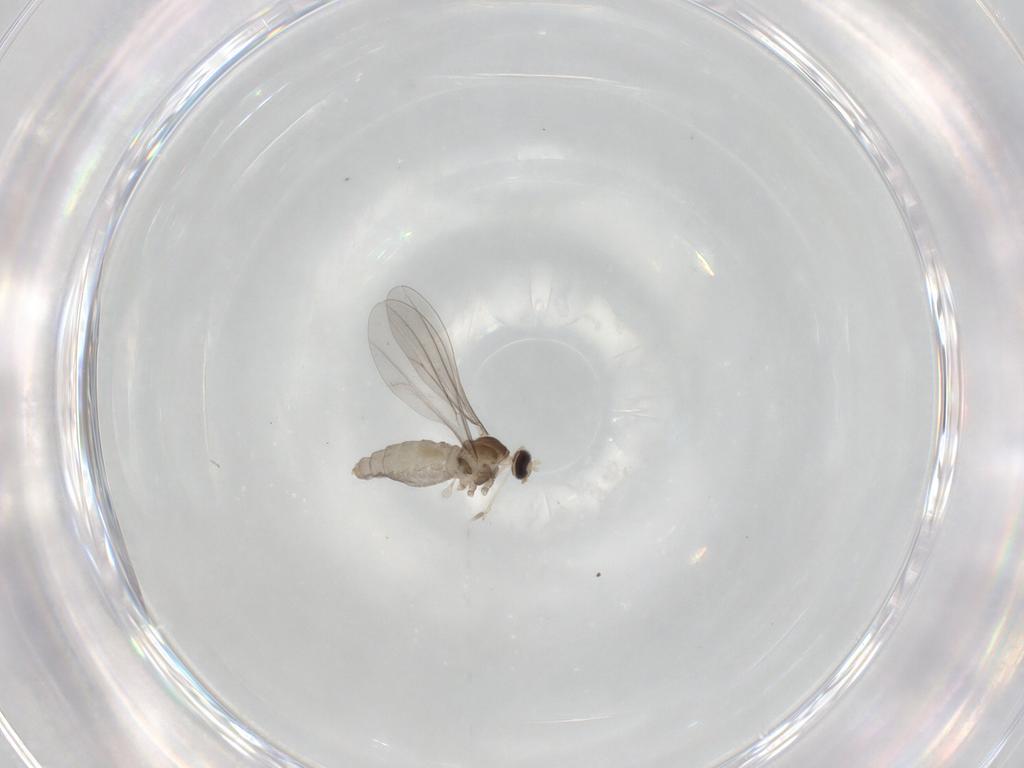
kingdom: Animalia
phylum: Arthropoda
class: Insecta
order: Diptera
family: Cecidomyiidae
